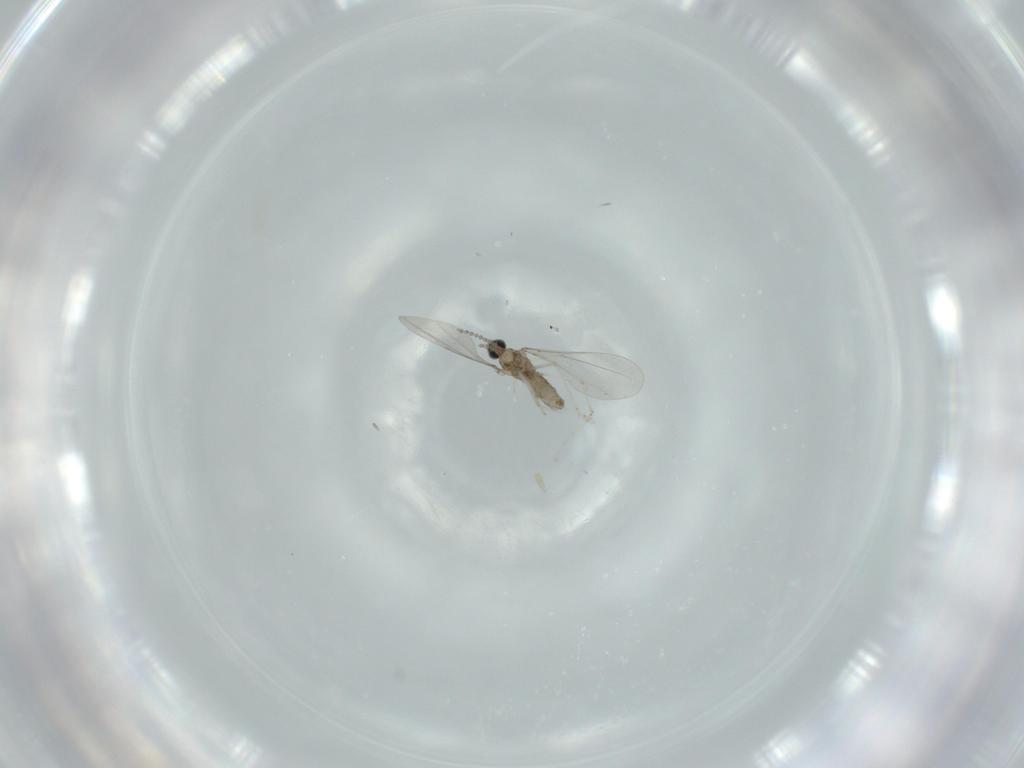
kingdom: Animalia
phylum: Arthropoda
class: Insecta
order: Diptera
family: Cecidomyiidae
